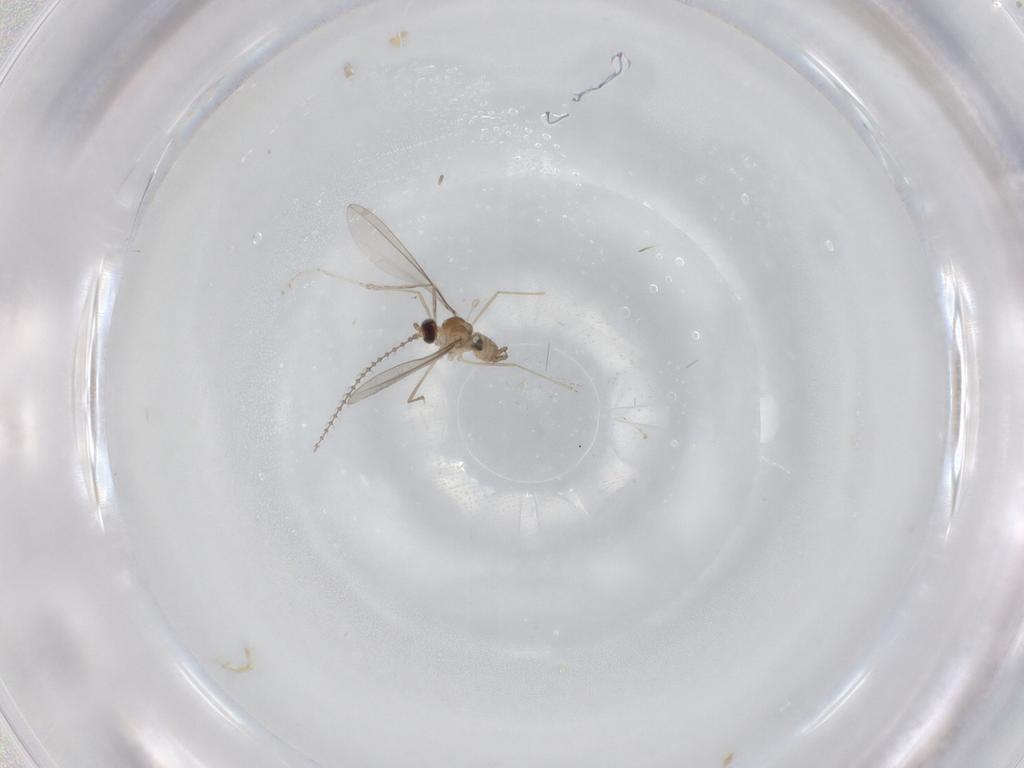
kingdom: Animalia
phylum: Arthropoda
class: Insecta
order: Diptera
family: Cecidomyiidae
